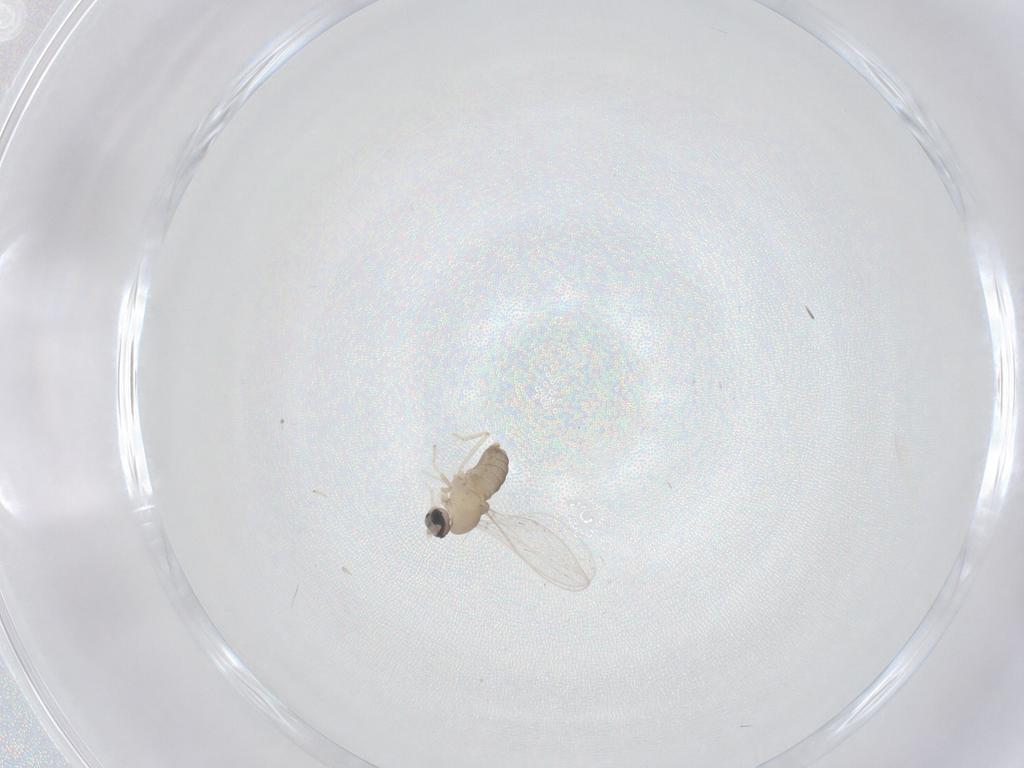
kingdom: Animalia
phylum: Arthropoda
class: Insecta
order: Diptera
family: Cecidomyiidae
